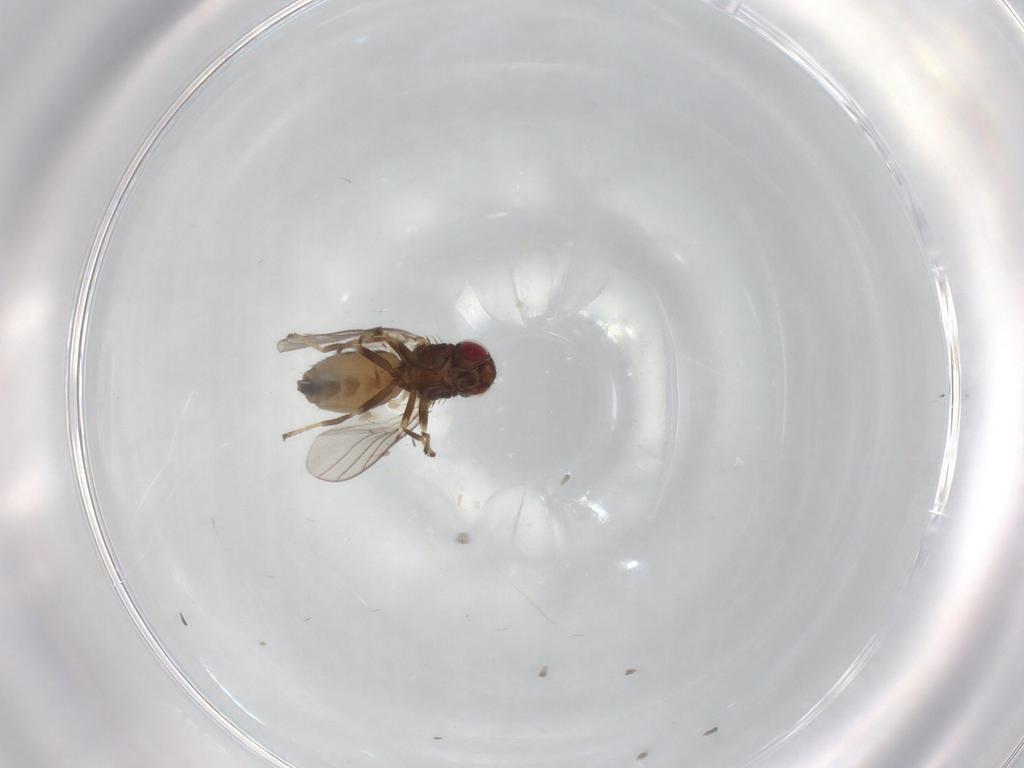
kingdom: Animalia
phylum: Arthropoda
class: Insecta
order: Diptera
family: Chloropidae
